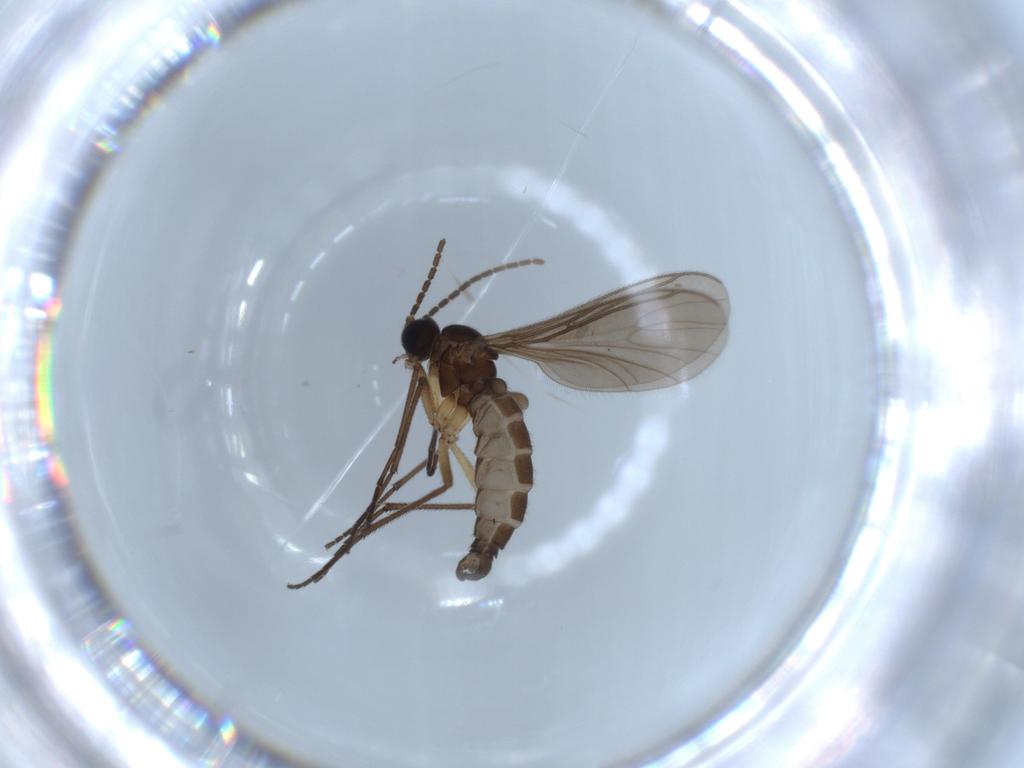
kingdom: Animalia
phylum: Arthropoda
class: Insecta
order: Diptera
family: Sciaridae
